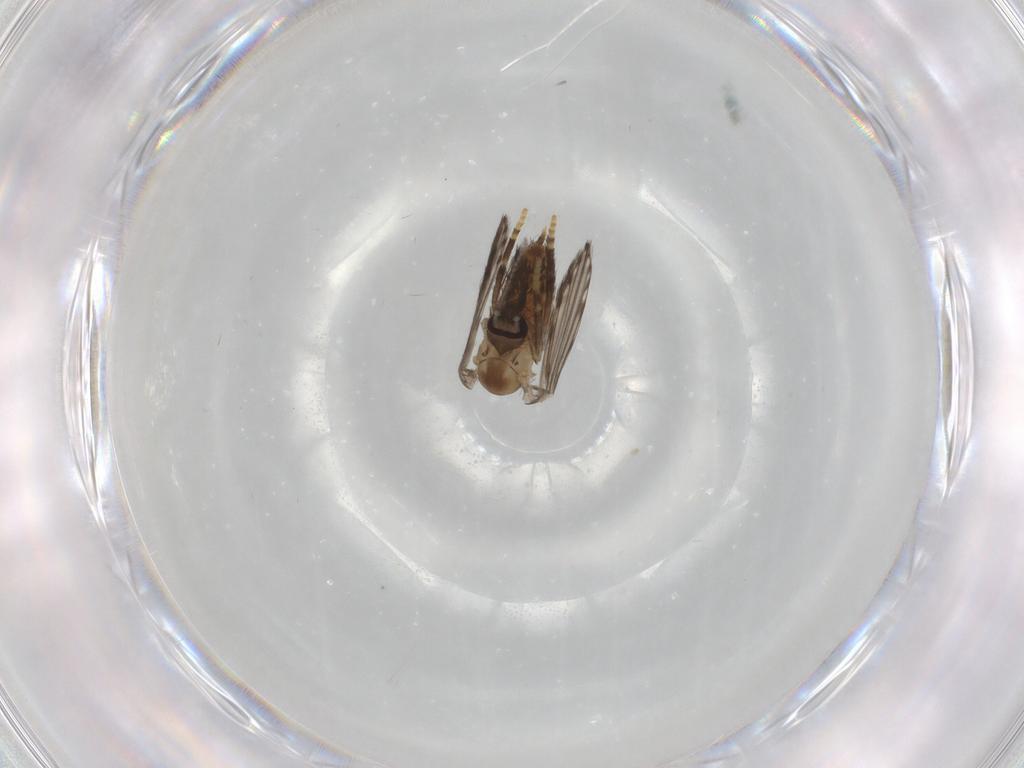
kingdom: Animalia
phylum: Arthropoda
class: Insecta
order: Diptera
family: Psychodidae
